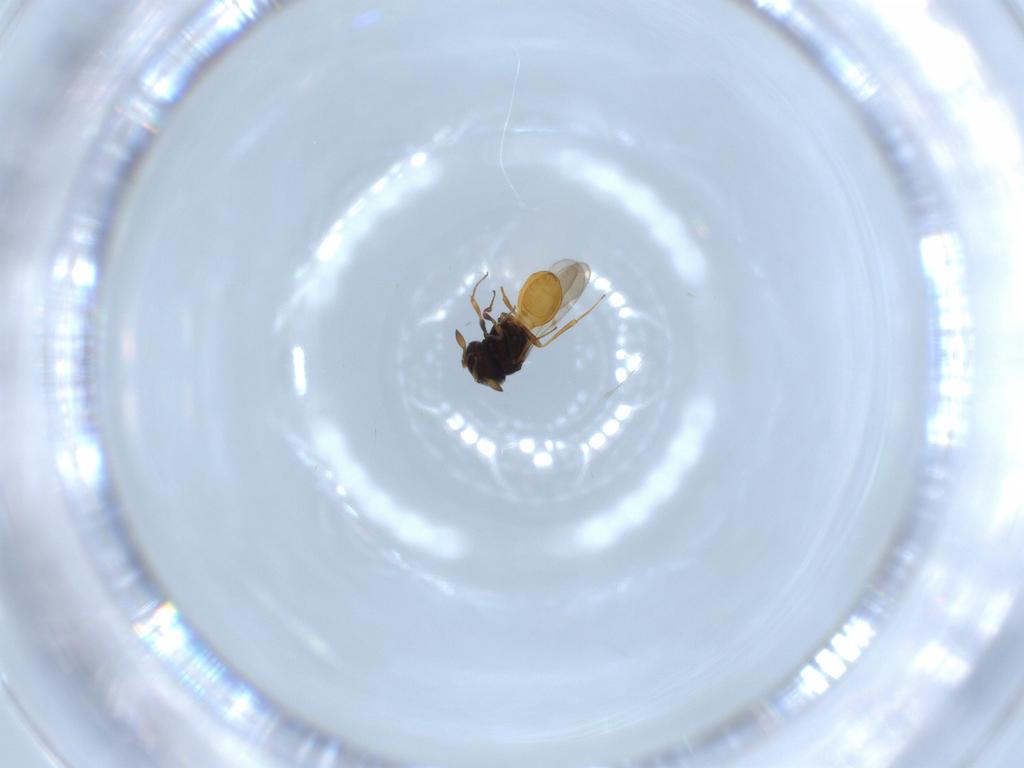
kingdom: Animalia
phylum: Arthropoda
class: Insecta
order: Hymenoptera
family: Scelionidae
